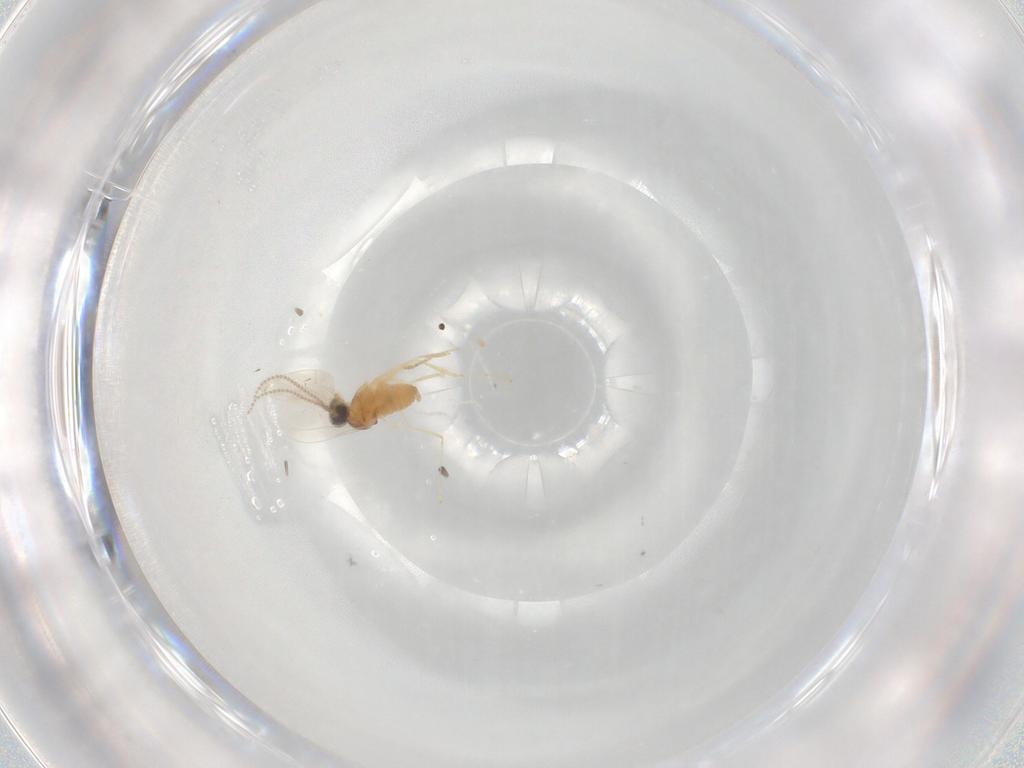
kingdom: Animalia
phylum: Arthropoda
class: Insecta
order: Diptera
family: Cecidomyiidae
